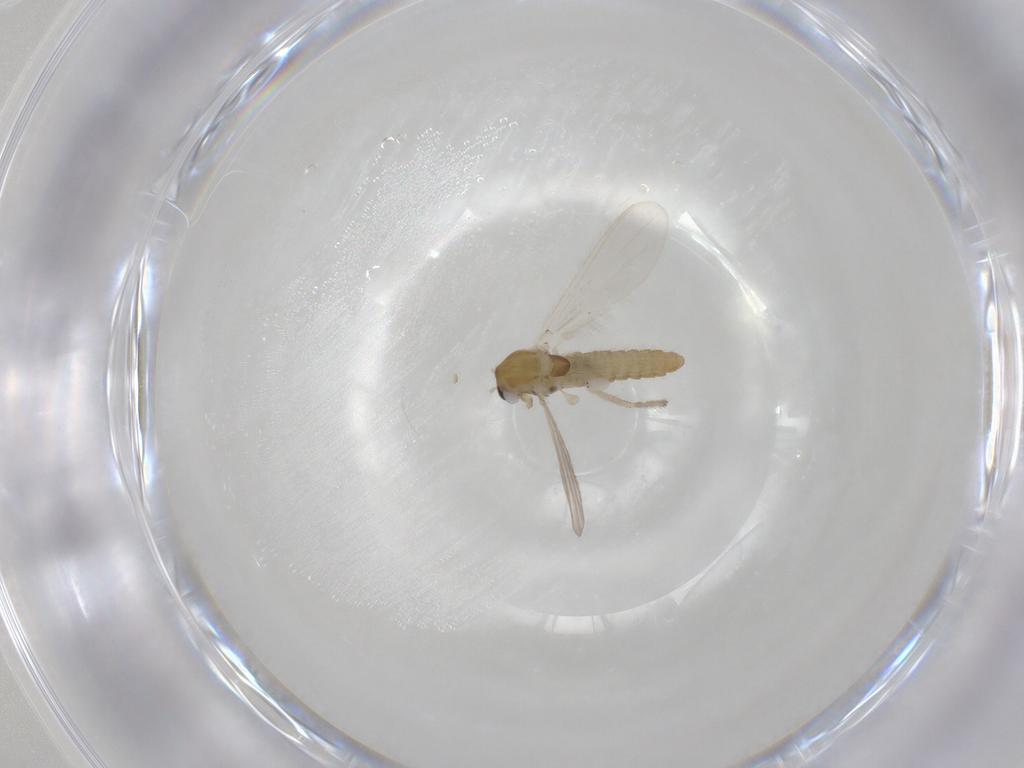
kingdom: Animalia
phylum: Arthropoda
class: Insecta
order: Diptera
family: Chironomidae
